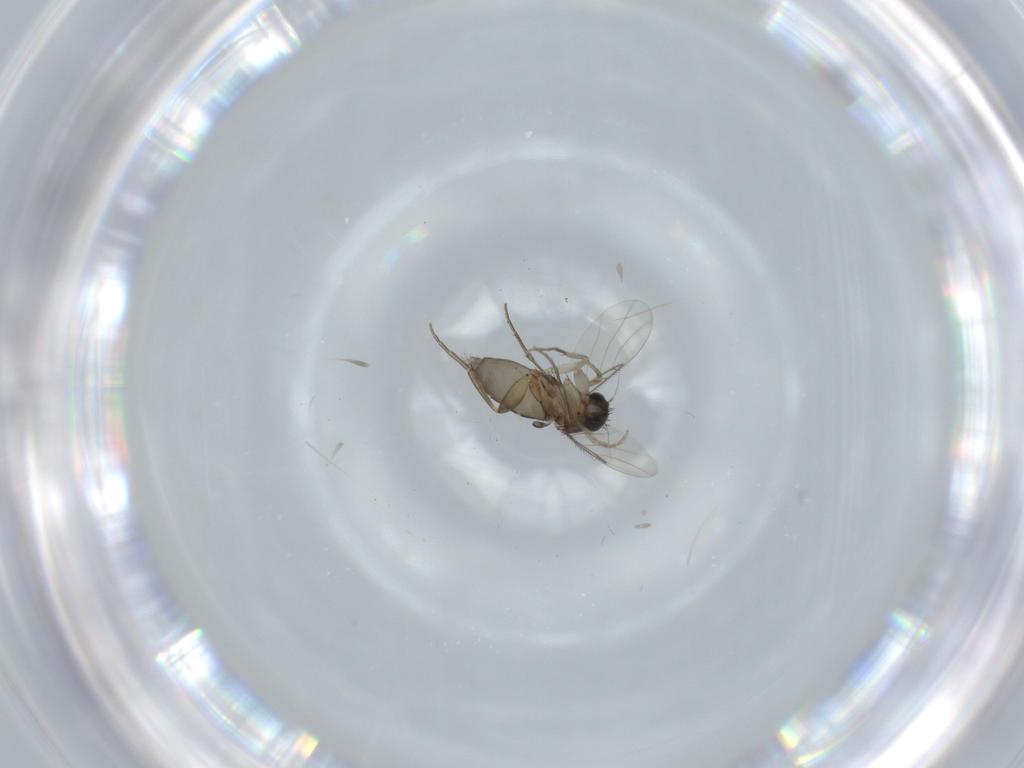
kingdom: Animalia
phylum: Arthropoda
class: Insecta
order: Diptera
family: Phoridae
